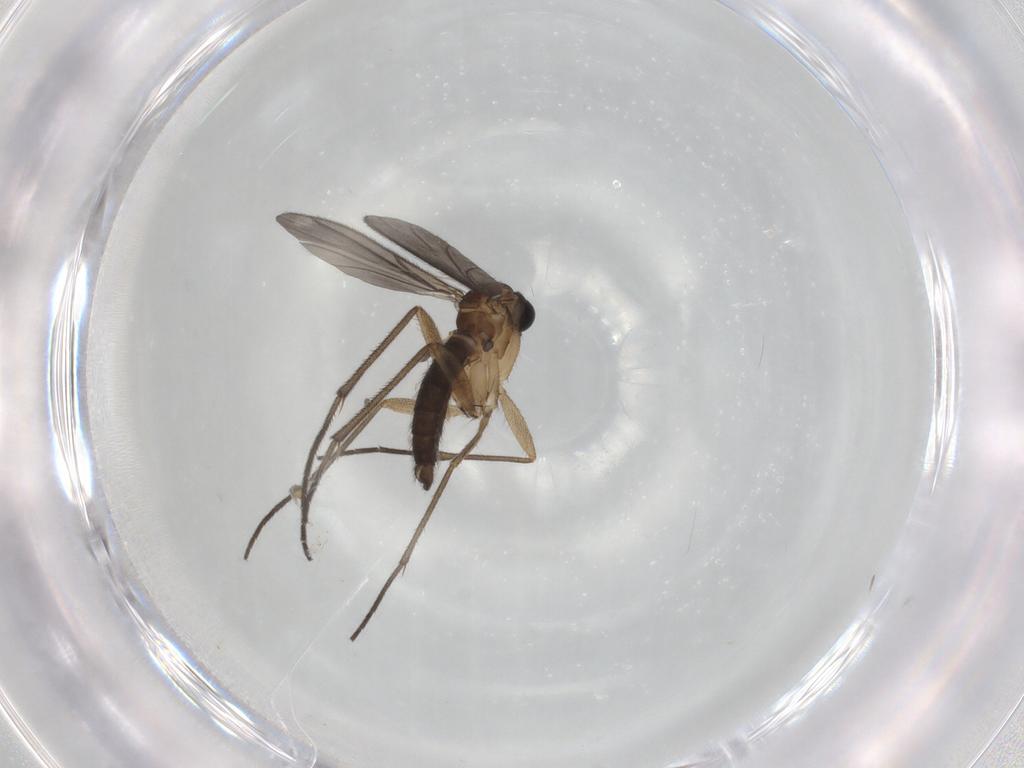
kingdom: Animalia
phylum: Arthropoda
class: Insecta
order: Diptera
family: Sciaridae
